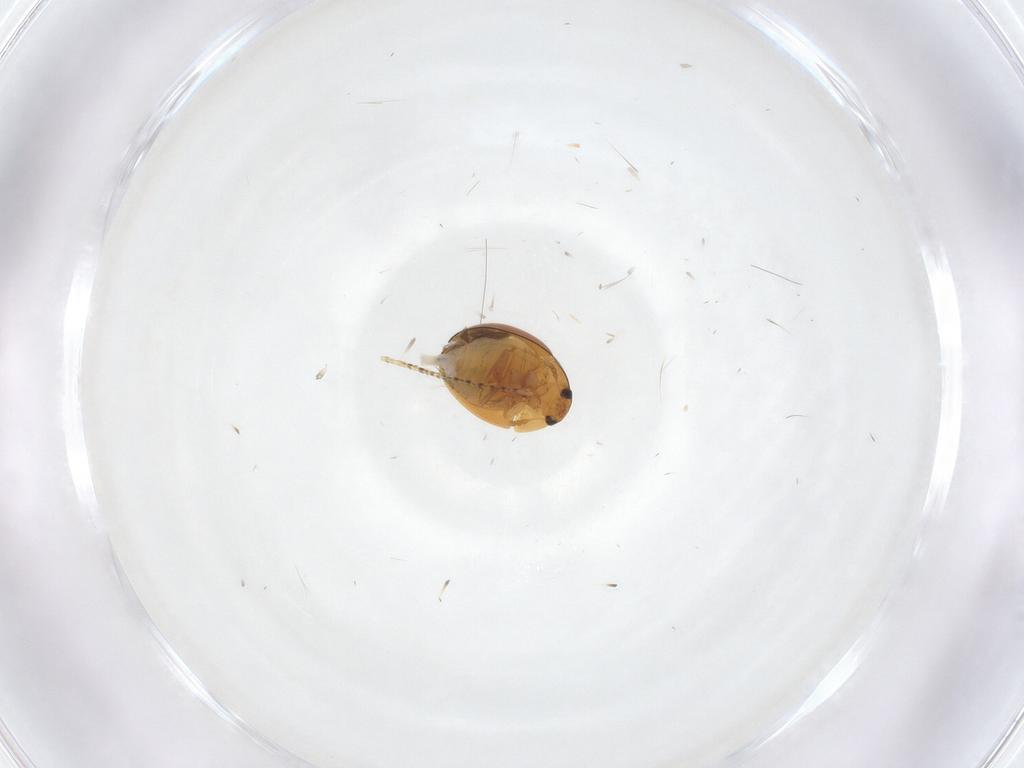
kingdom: Animalia
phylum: Arthropoda
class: Insecta
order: Coleoptera
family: Phalacridae
